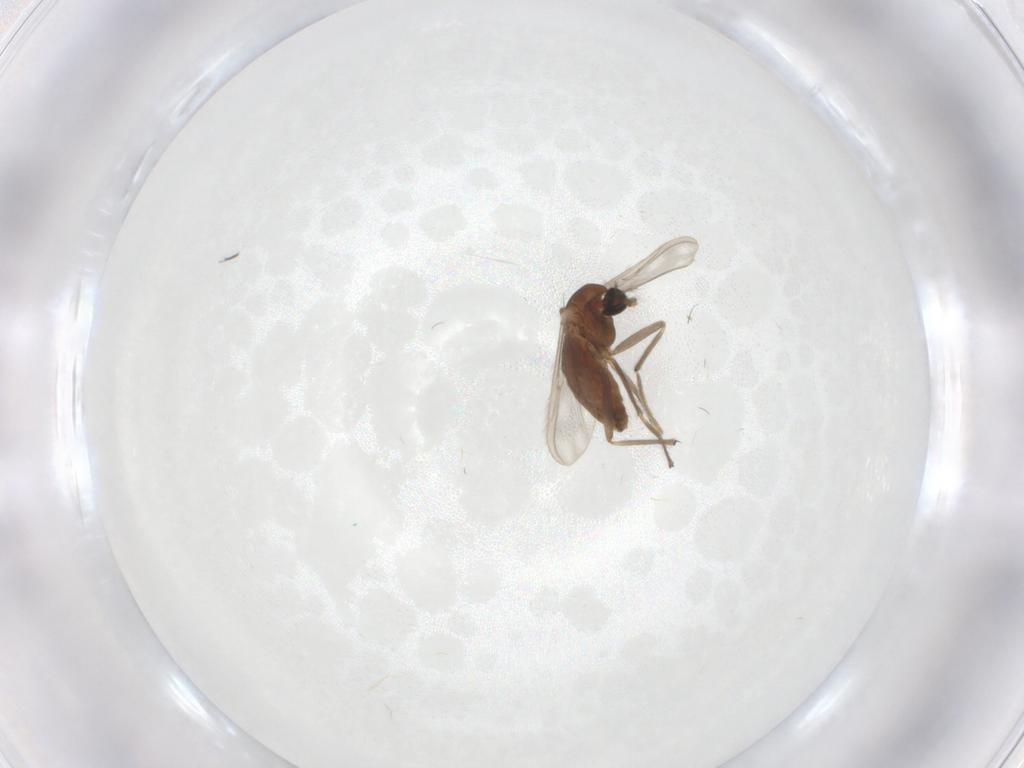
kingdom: Animalia
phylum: Arthropoda
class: Insecta
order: Diptera
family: Chironomidae
